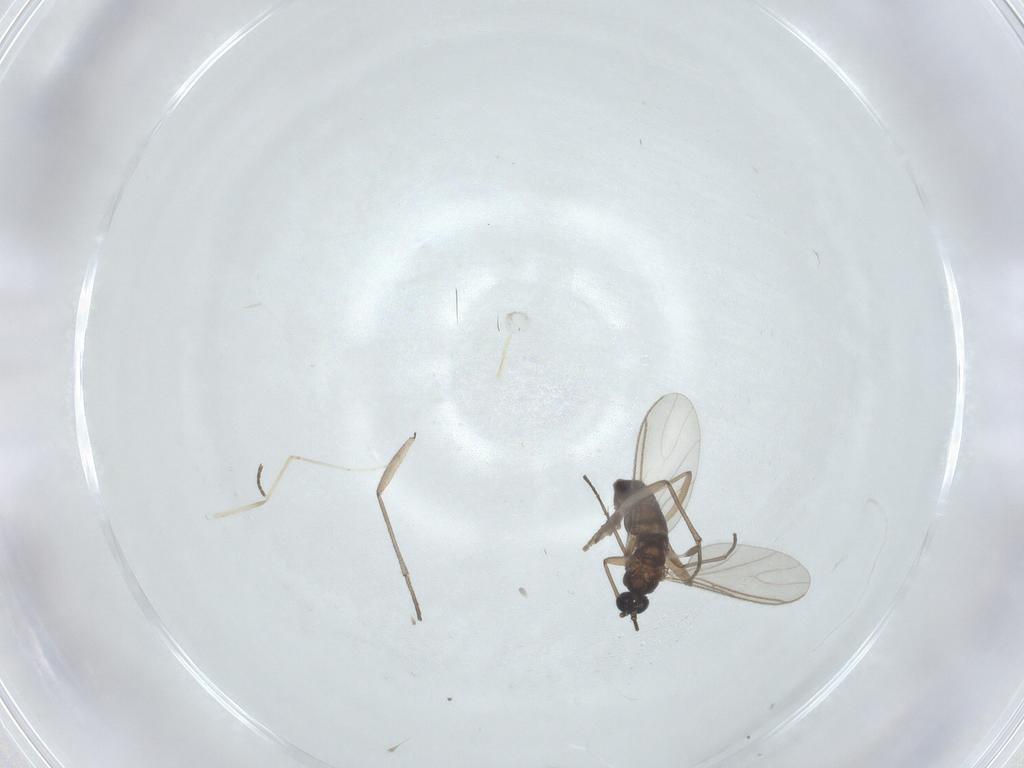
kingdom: Animalia
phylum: Arthropoda
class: Insecta
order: Diptera
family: Sciaridae
